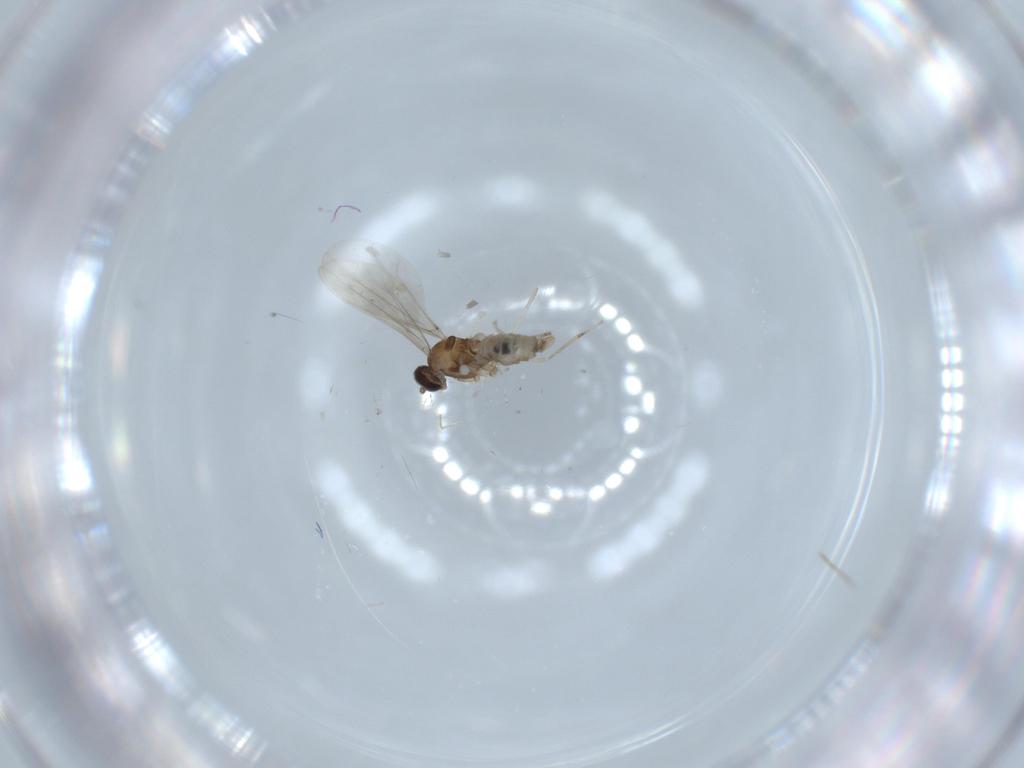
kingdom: Animalia
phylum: Arthropoda
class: Insecta
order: Diptera
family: Cecidomyiidae
